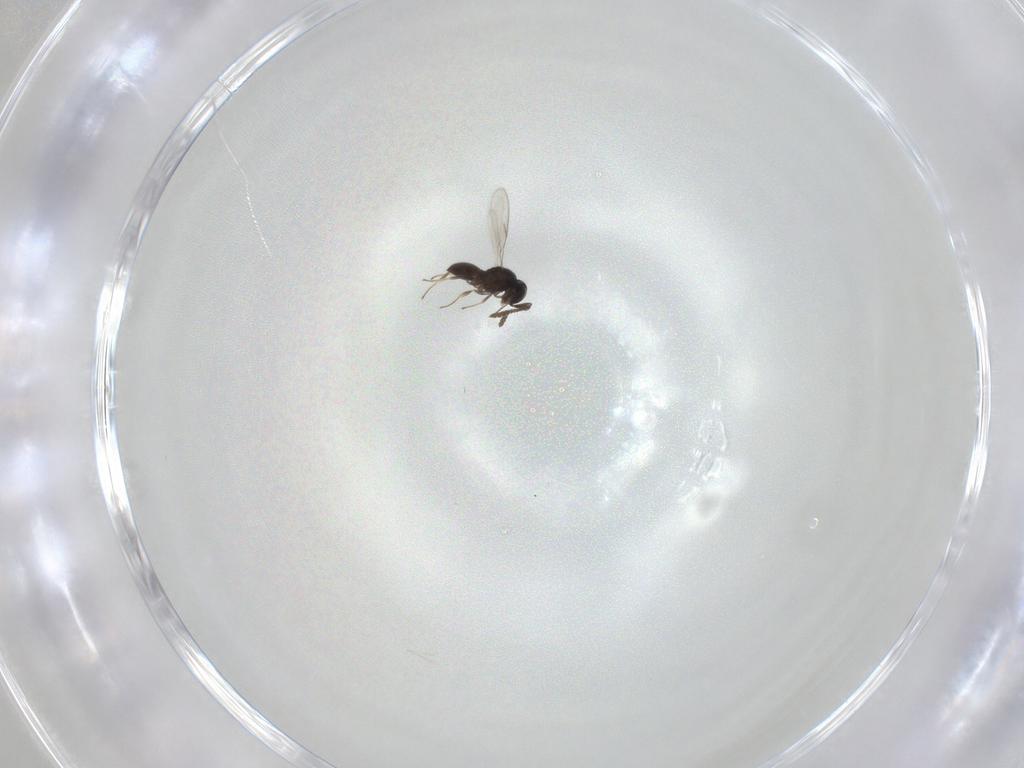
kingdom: Animalia
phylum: Arthropoda
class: Insecta
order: Hymenoptera
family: Scelionidae
